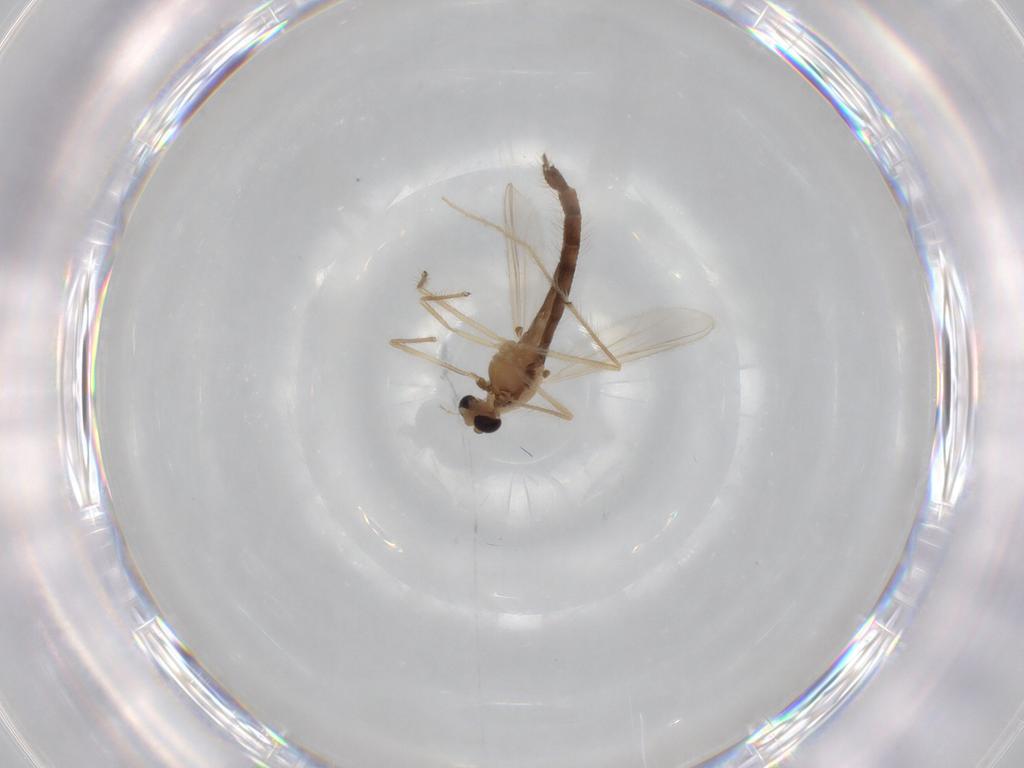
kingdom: Animalia
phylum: Arthropoda
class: Insecta
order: Diptera
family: Chironomidae
